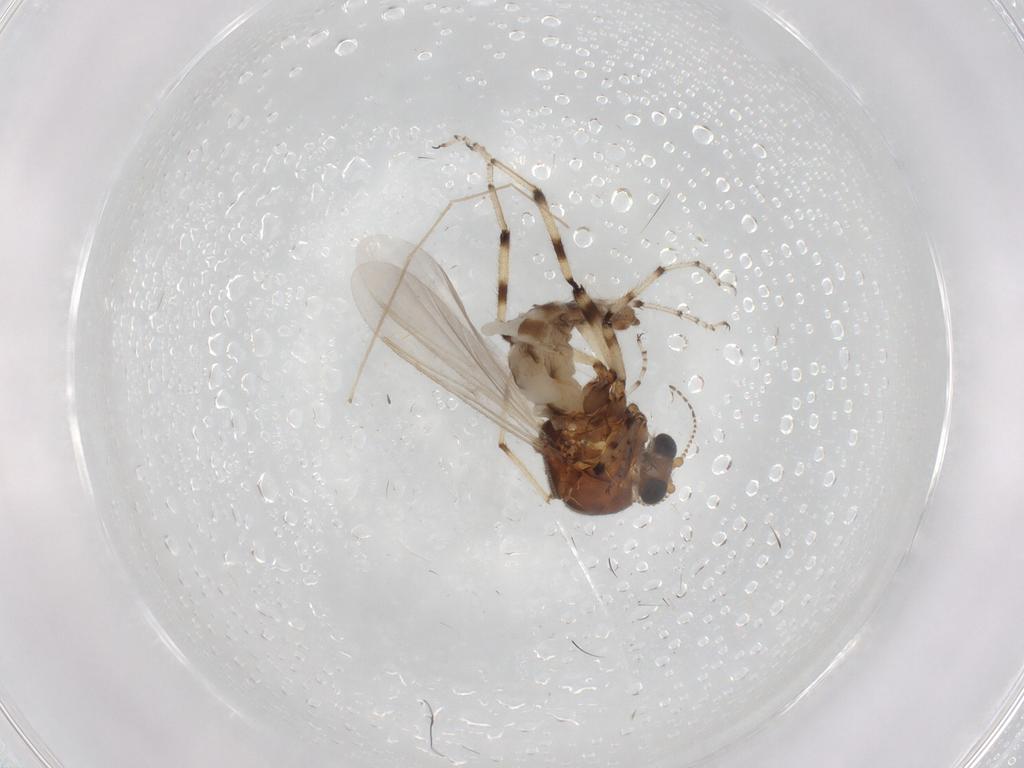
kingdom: Animalia
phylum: Arthropoda
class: Insecta
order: Diptera
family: Ceratopogonidae
